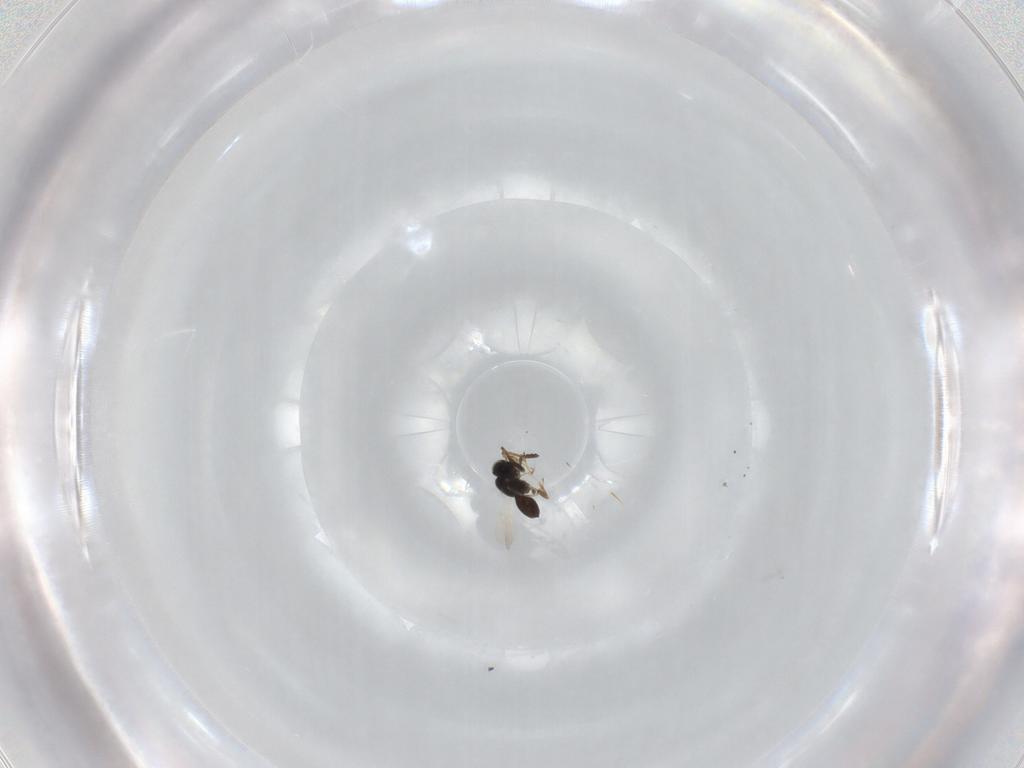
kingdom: Animalia
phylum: Arthropoda
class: Insecta
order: Hymenoptera
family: Scelionidae
